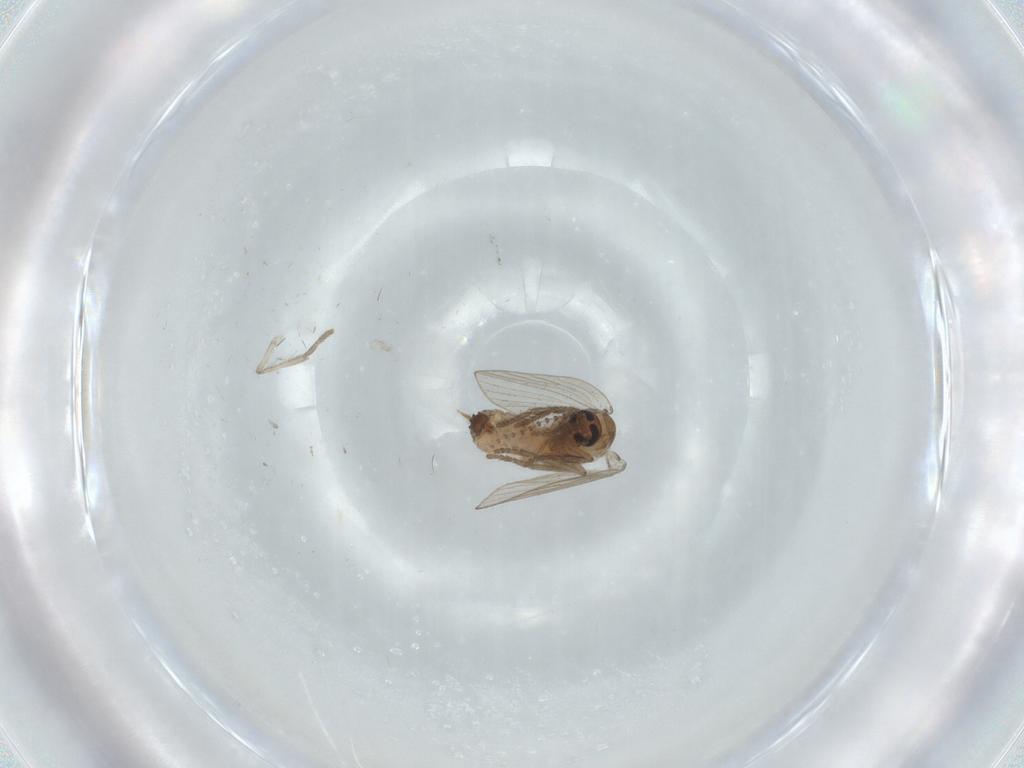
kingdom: Animalia
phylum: Arthropoda
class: Insecta
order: Diptera
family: Psychodidae
